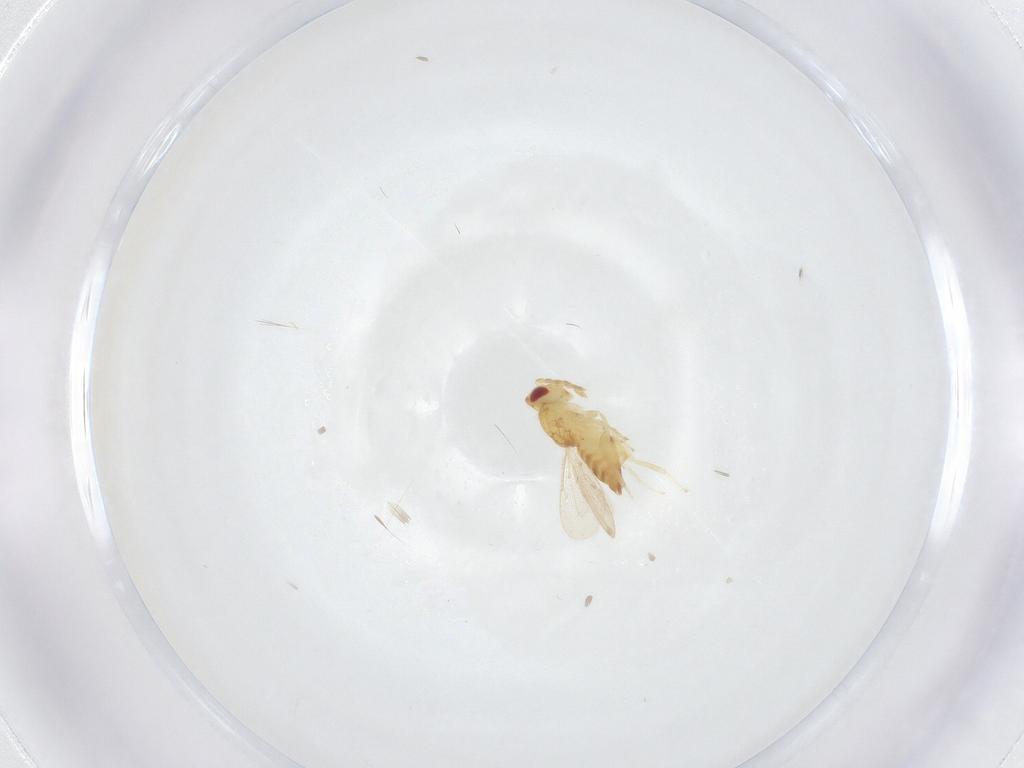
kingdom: Animalia
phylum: Arthropoda
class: Insecta
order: Hymenoptera
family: Eulophidae
